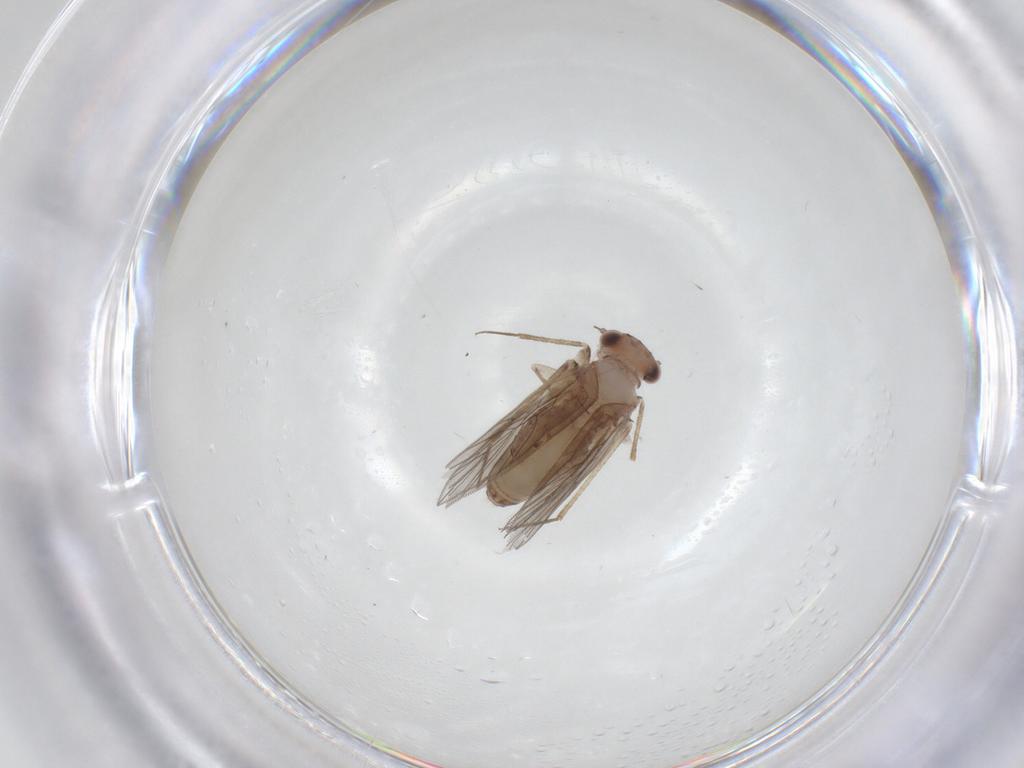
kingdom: Animalia
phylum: Arthropoda
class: Insecta
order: Psocodea
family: Lepidopsocidae
